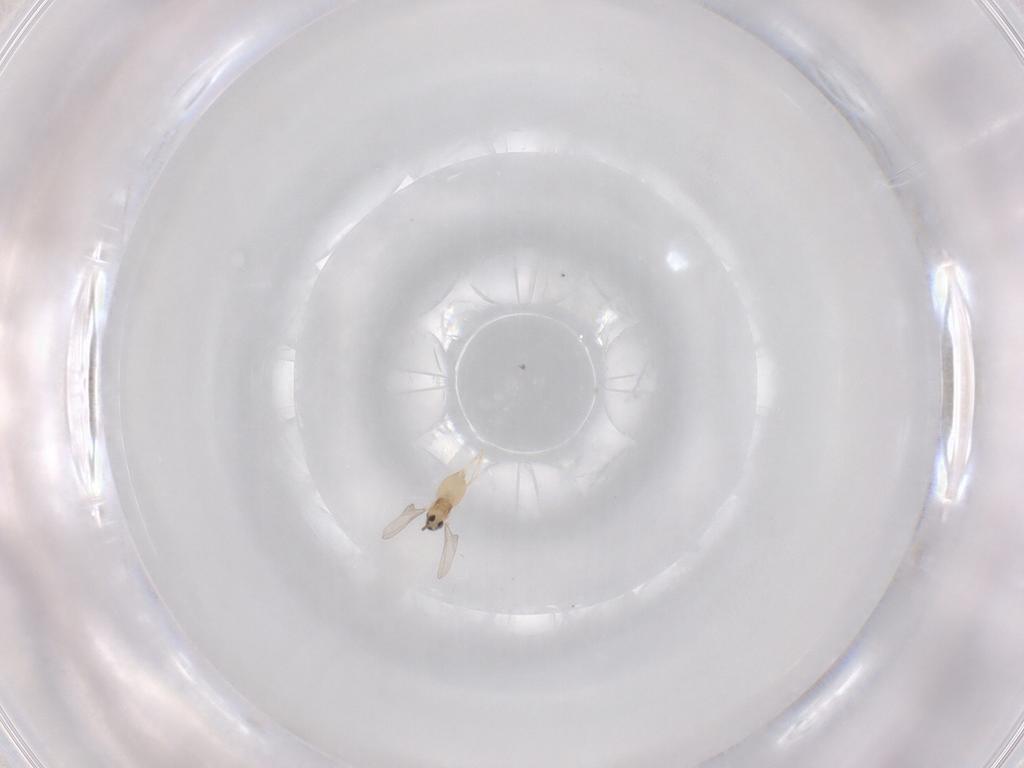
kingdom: Animalia
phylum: Arthropoda
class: Insecta
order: Diptera
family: Cecidomyiidae
